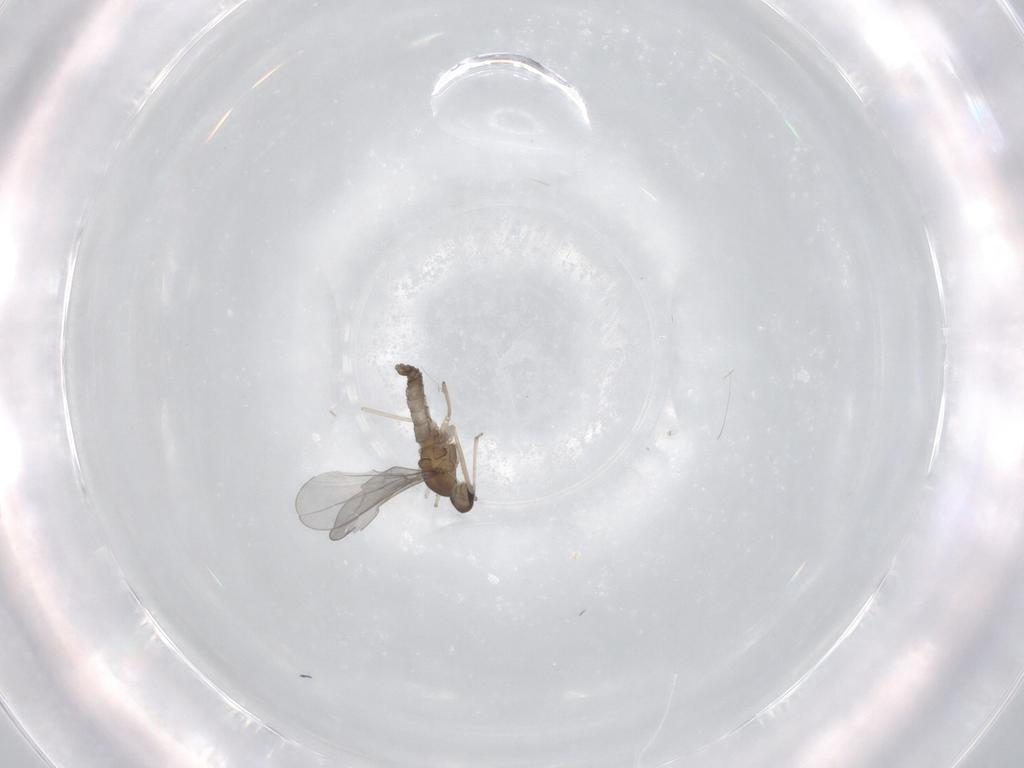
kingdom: Animalia
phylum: Arthropoda
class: Insecta
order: Diptera
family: Cecidomyiidae
